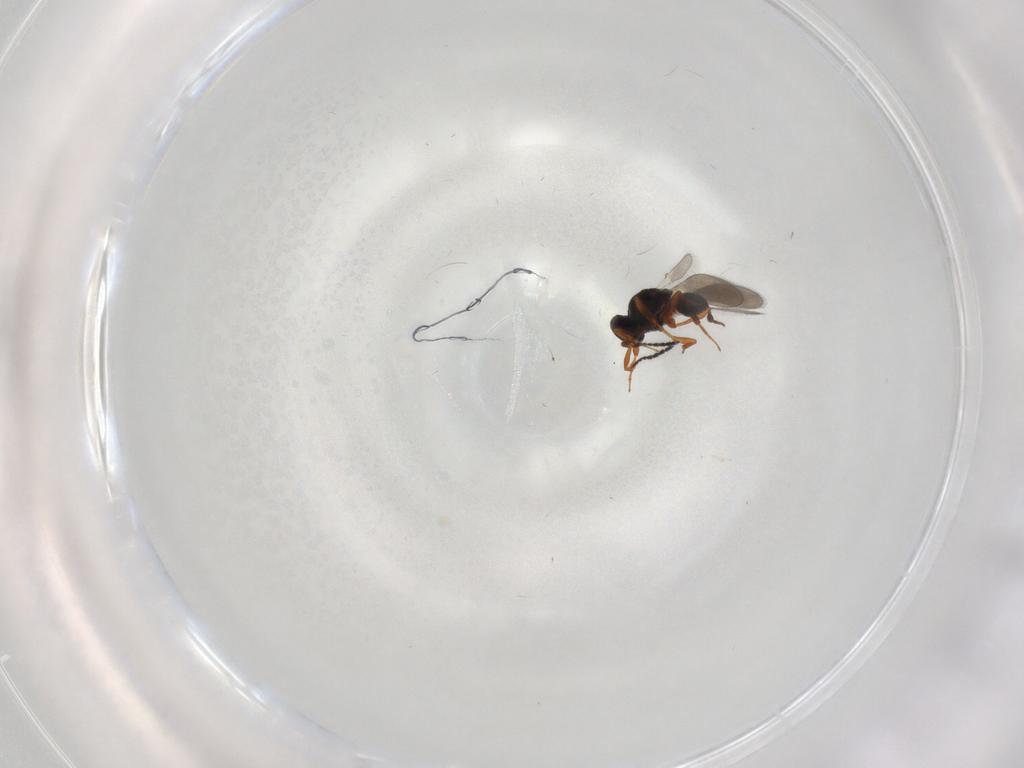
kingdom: Animalia
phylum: Arthropoda
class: Insecta
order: Hymenoptera
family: Platygastridae
